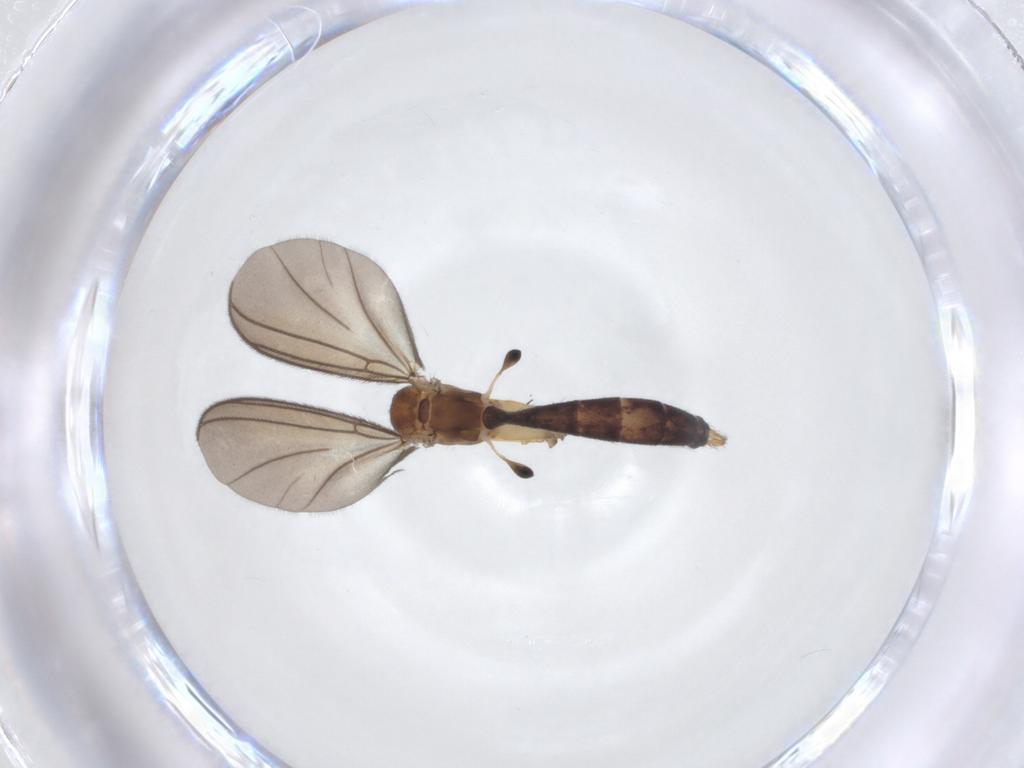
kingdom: Animalia
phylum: Arthropoda
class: Insecta
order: Diptera
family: Mycetophilidae
